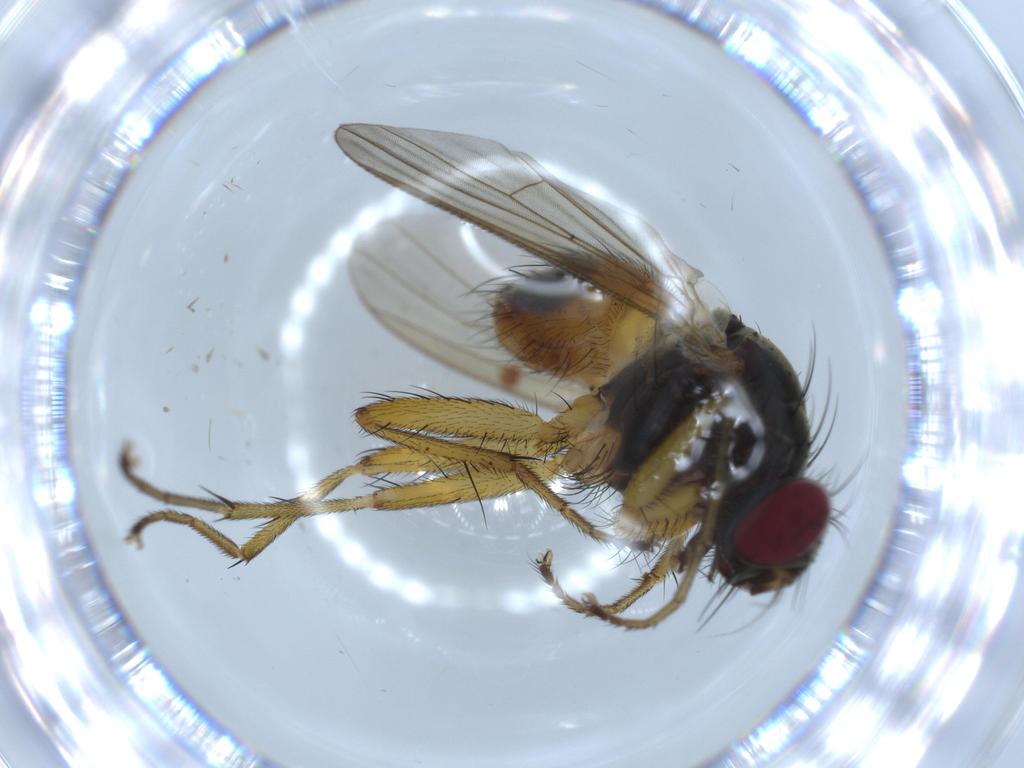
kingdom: Animalia
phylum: Arthropoda
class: Insecta
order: Diptera
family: Muscidae
